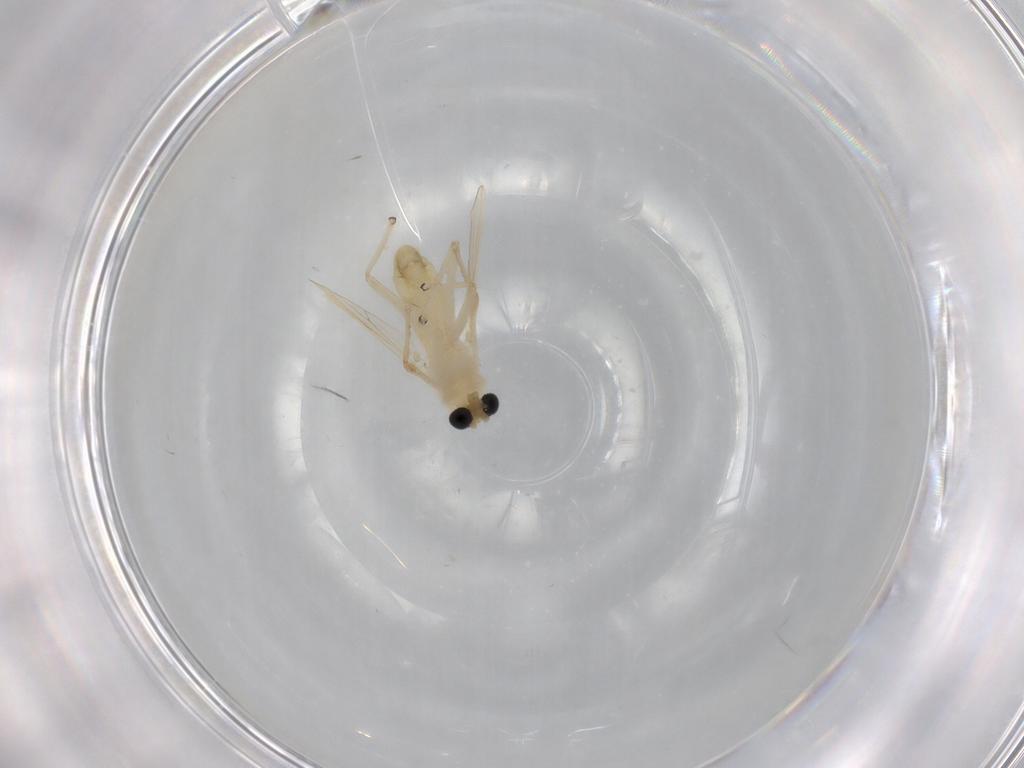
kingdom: Animalia
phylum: Arthropoda
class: Insecta
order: Diptera
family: Chironomidae
